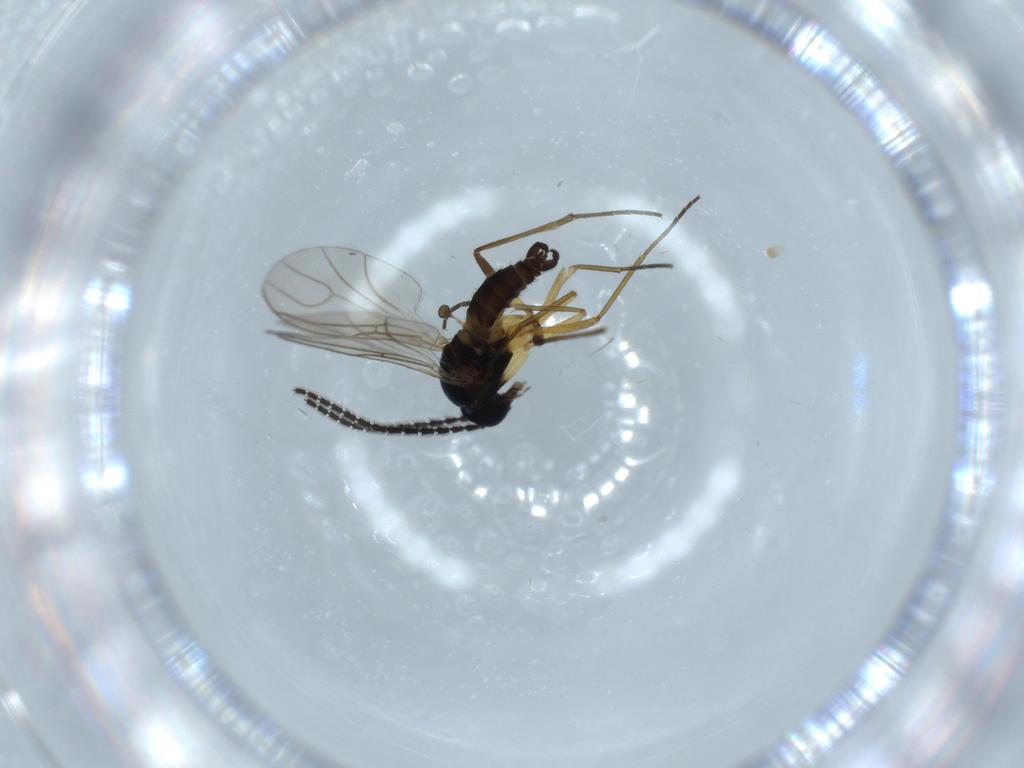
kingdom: Animalia
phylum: Arthropoda
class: Insecta
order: Diptera
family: Sciaridae
